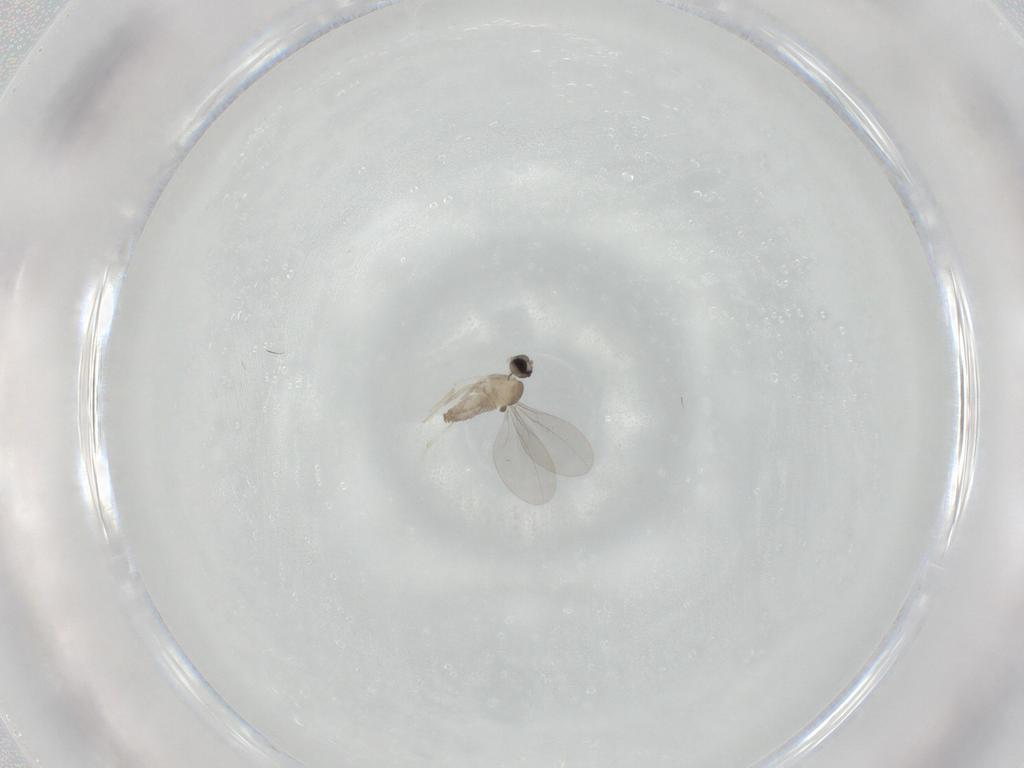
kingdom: Animalia
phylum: Arthropoda
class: Insecta
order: Diptera
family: Cecidomyiidae
